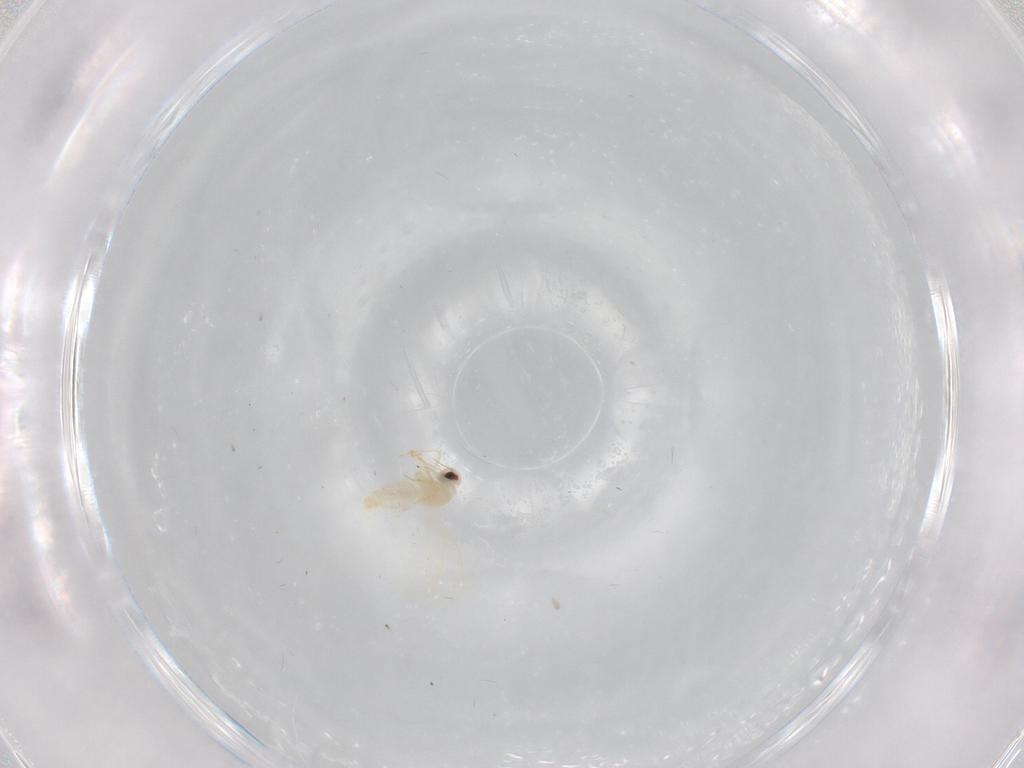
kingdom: Animalia
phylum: Arthropoda
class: Insecta
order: Hemiptera
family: Aleyrodidae
